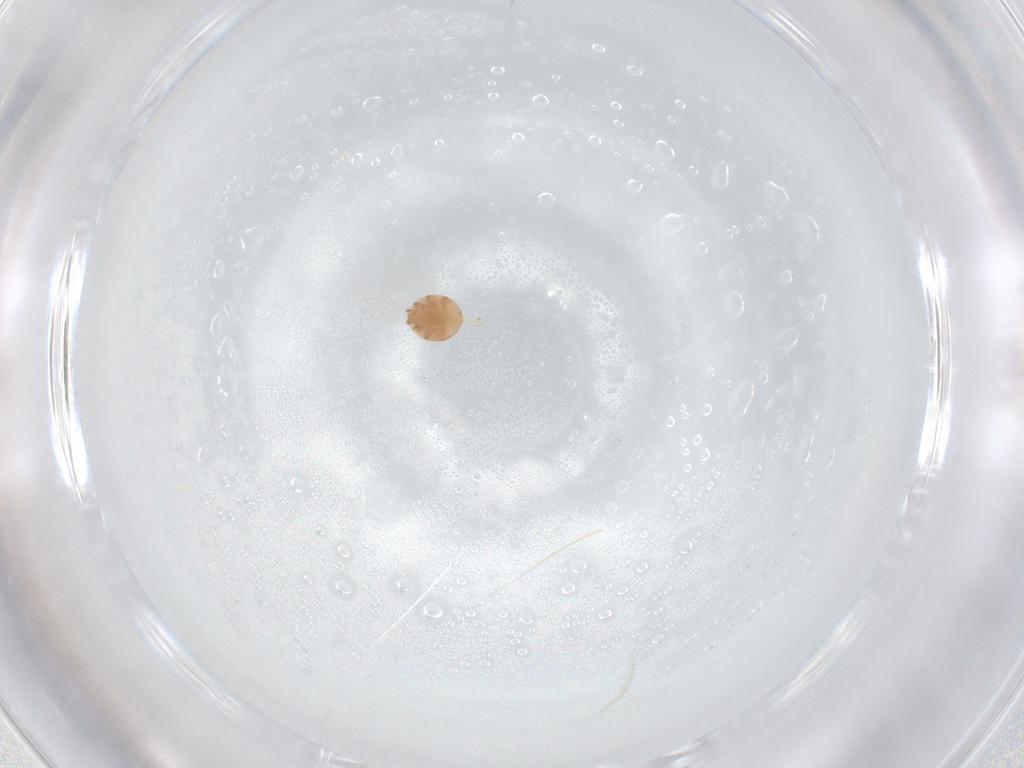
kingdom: Animalia
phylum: Arthropoda
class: Arachnida
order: Mesostigmata
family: Trematuridae
